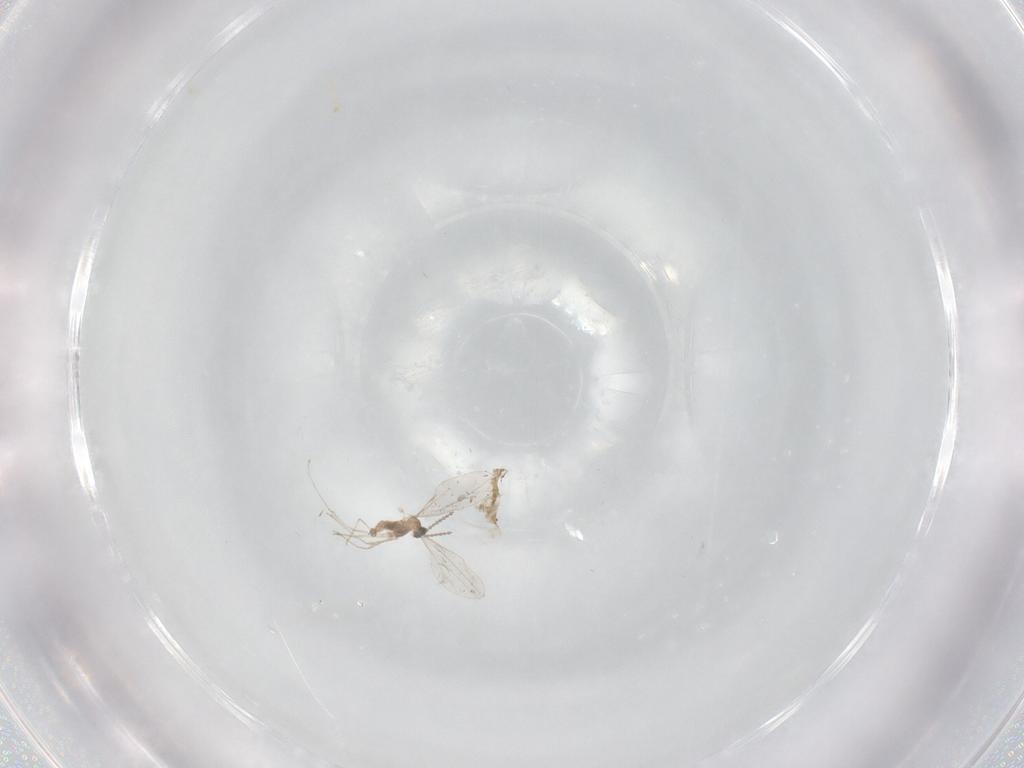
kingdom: Animalia
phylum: Arthropoda
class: Insecta
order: Diptera
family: Cecidomyiidae
